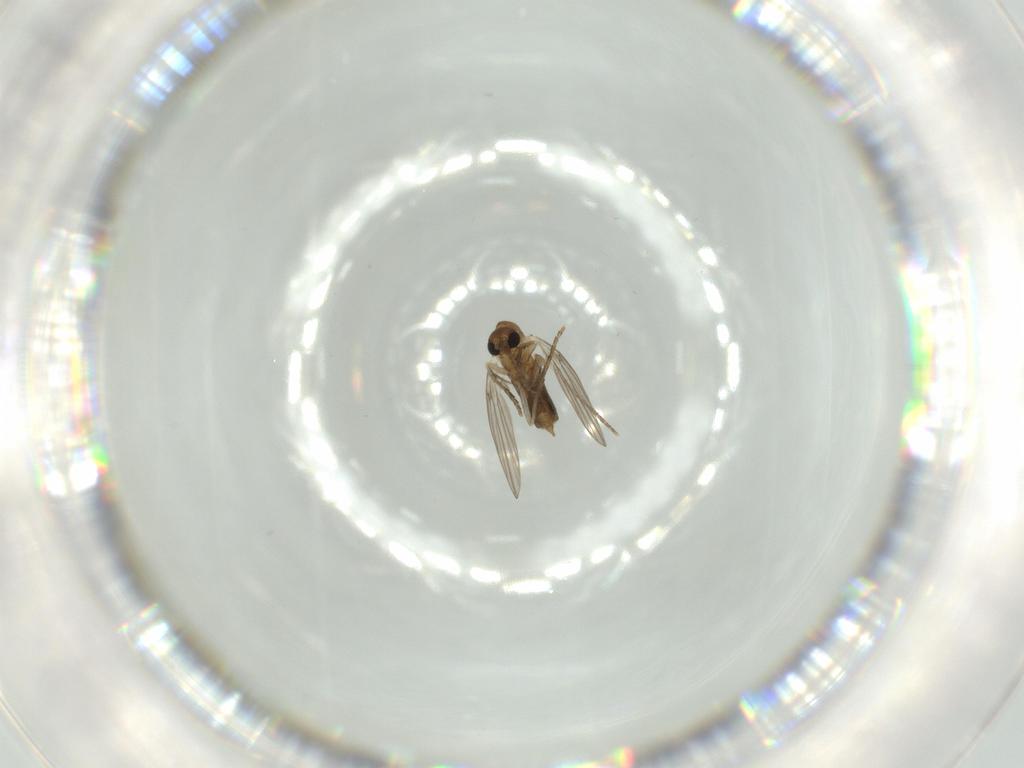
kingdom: Animalia
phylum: Arthropoda
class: Insecta
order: Diptera
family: Psychodidae
